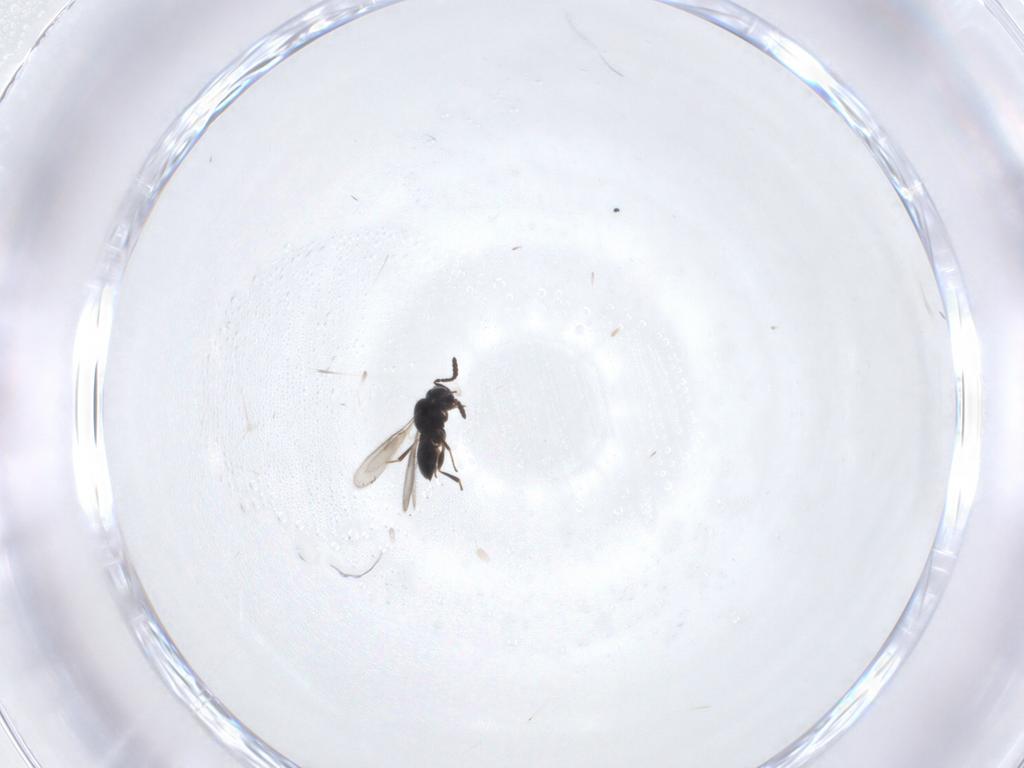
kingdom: Animalia
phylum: Arthropoda
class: Insecta
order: Hymenoptera
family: Scelionidae
